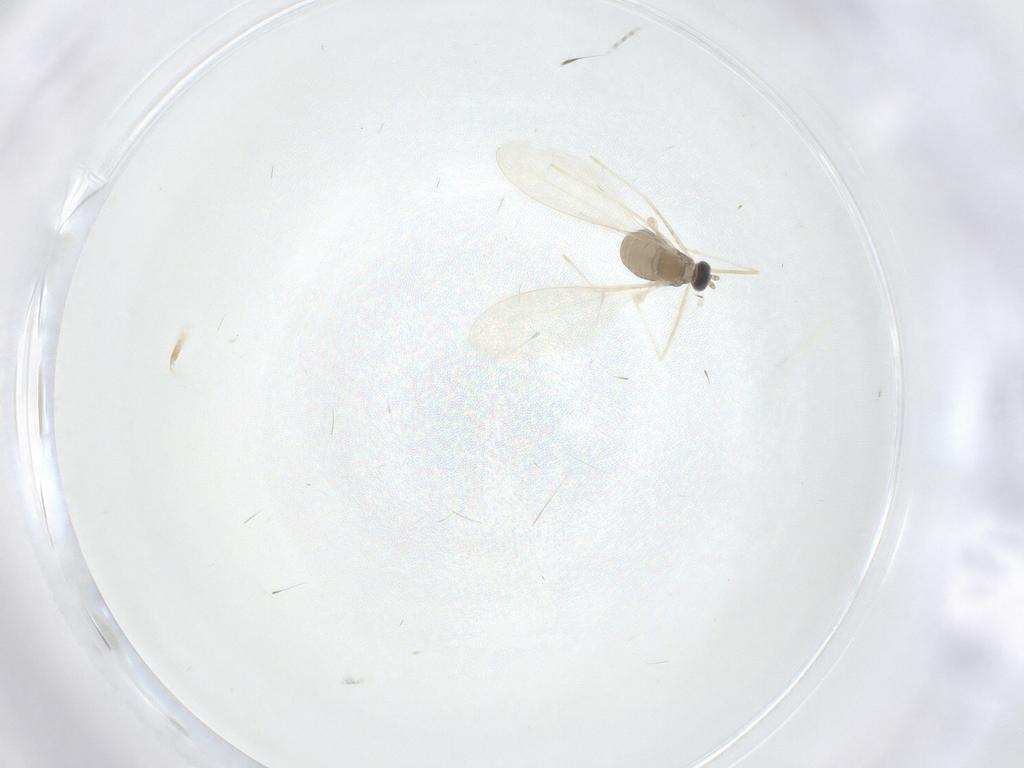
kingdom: Animalia
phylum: Arthropoda
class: Insecta
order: Diptera
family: Cecidomyiidae
